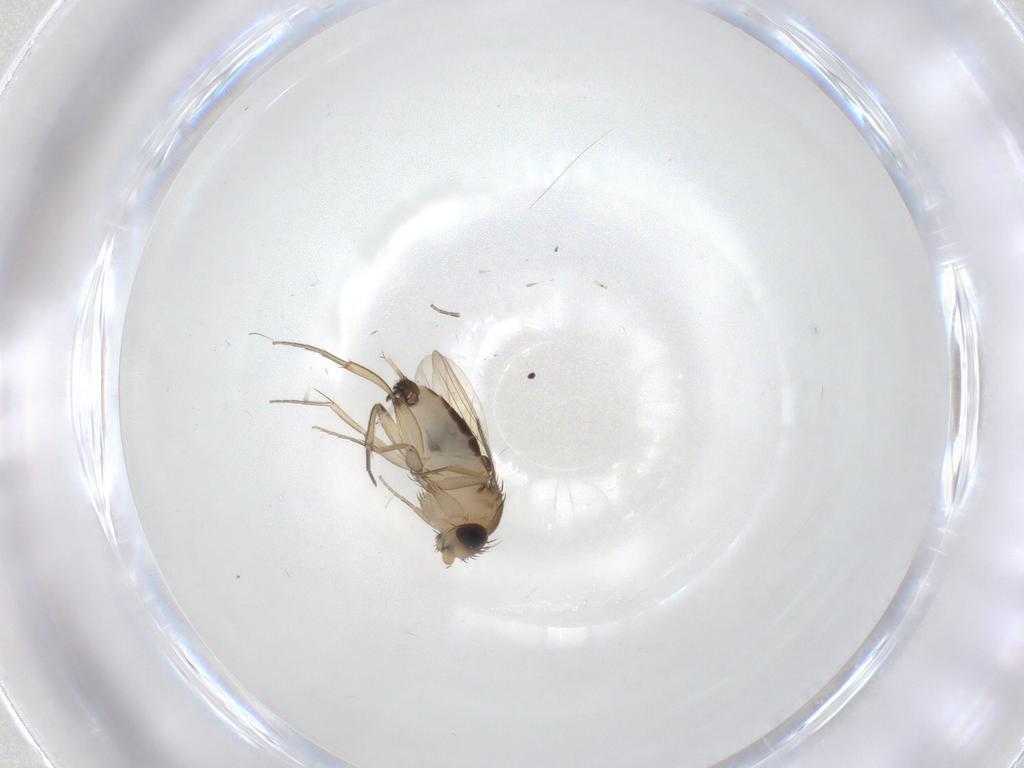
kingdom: Animalia
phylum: Arthropoda
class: Insecta
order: Diptera
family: Phoridae
